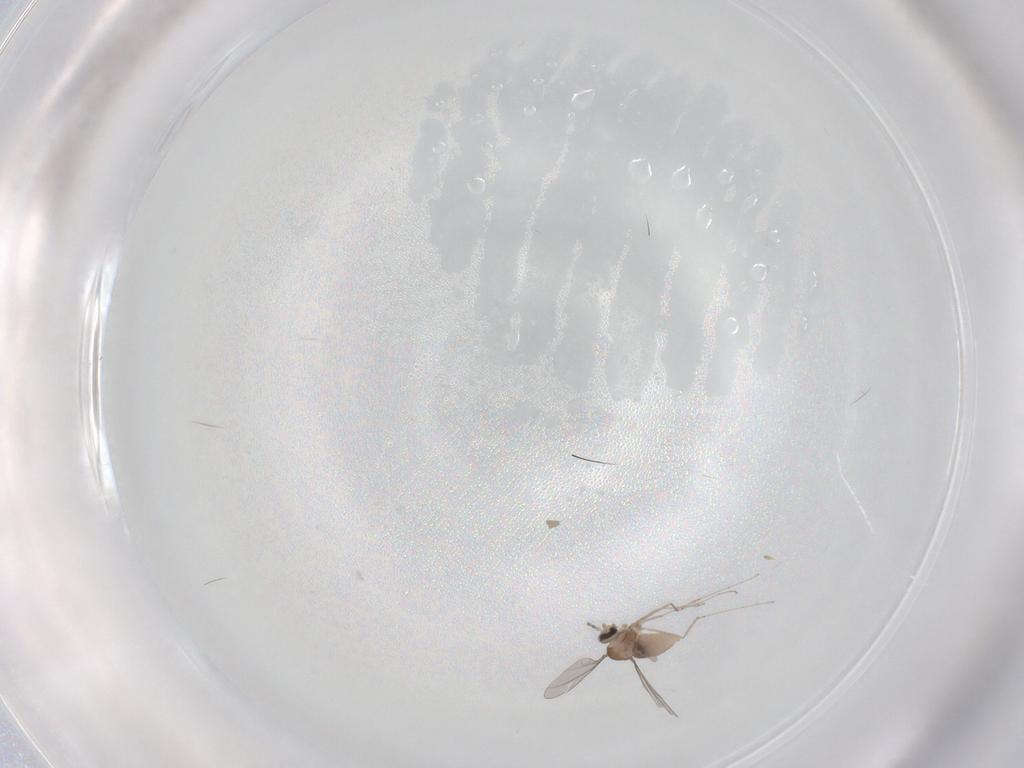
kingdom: Animalia
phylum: Arthropoda
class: Insecta
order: Diptera
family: Cecidomyiidae
